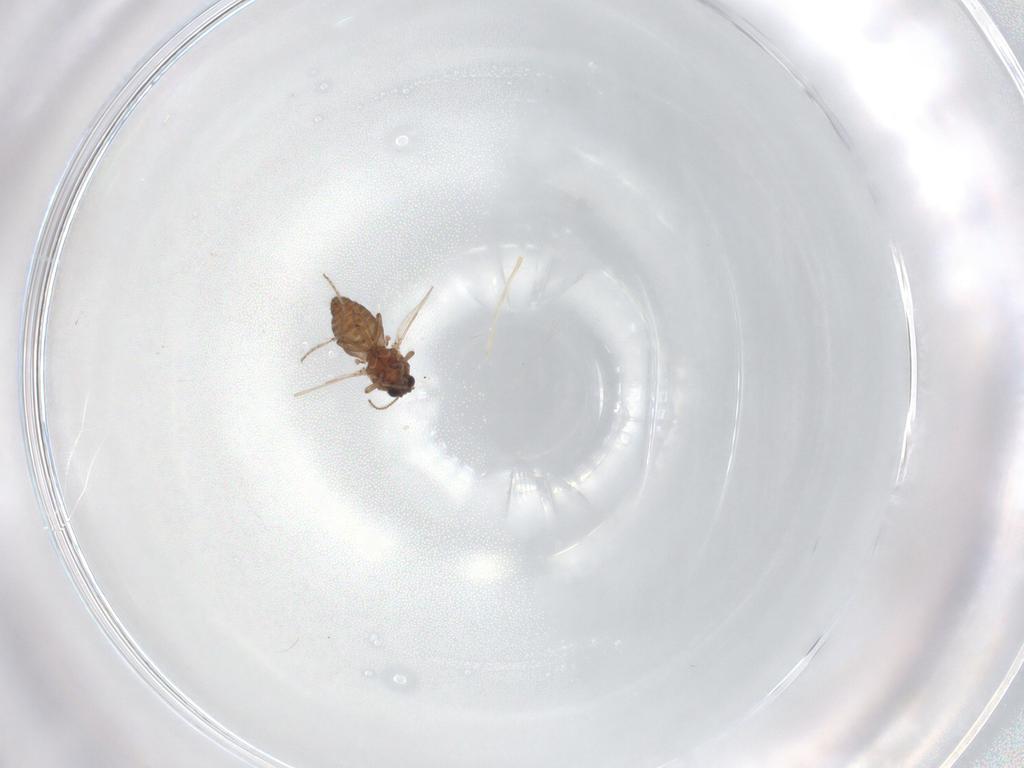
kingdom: Animalia
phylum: Arthropoda
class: Insecta
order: Diptera
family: Ceratopogonidae
